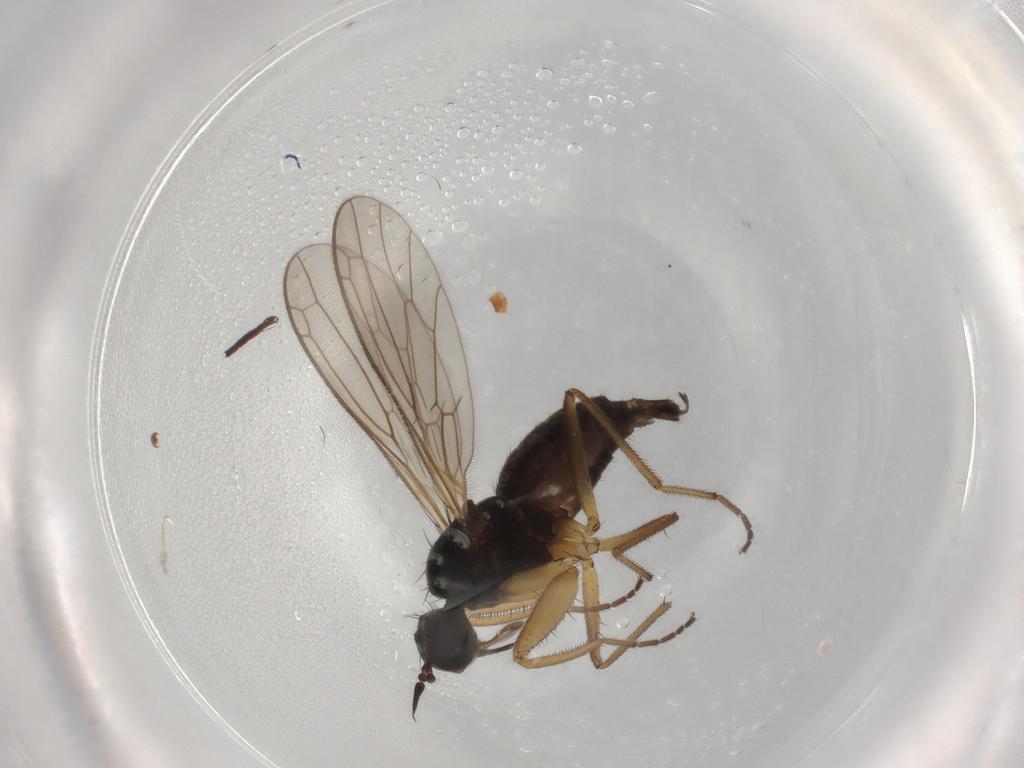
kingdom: Animalia
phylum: Arthropoda
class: Insecta
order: Diptera
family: Empididae
